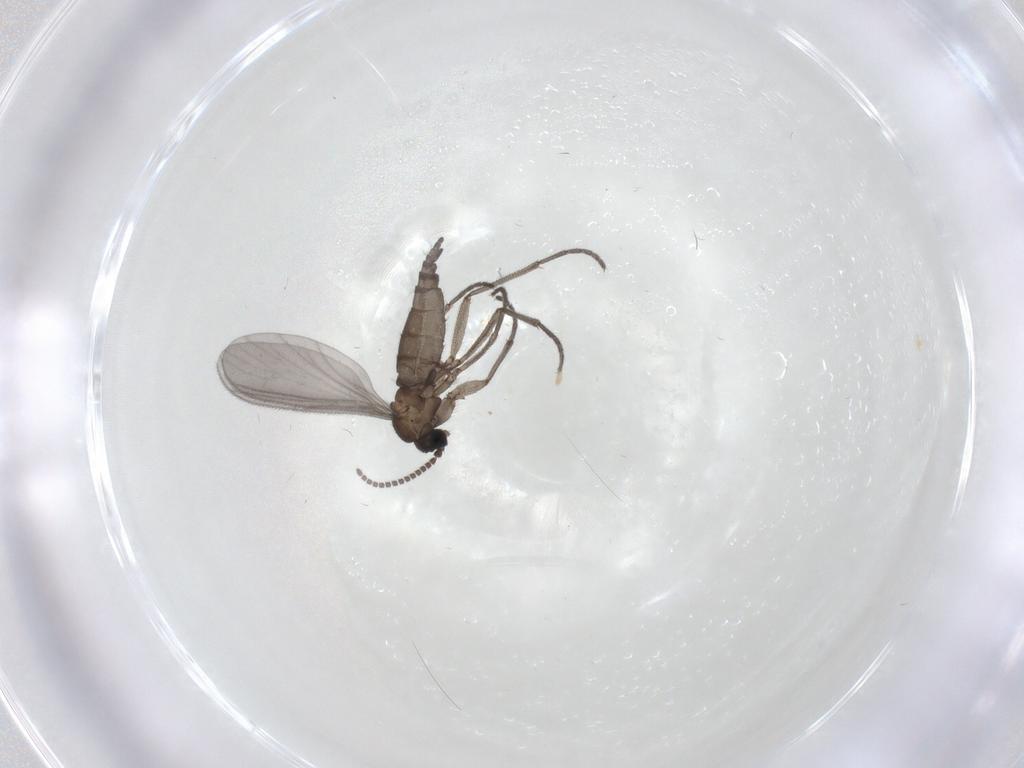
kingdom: Animalia
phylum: Arthropoda
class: Insecta
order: Diptera
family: Sciaridae
